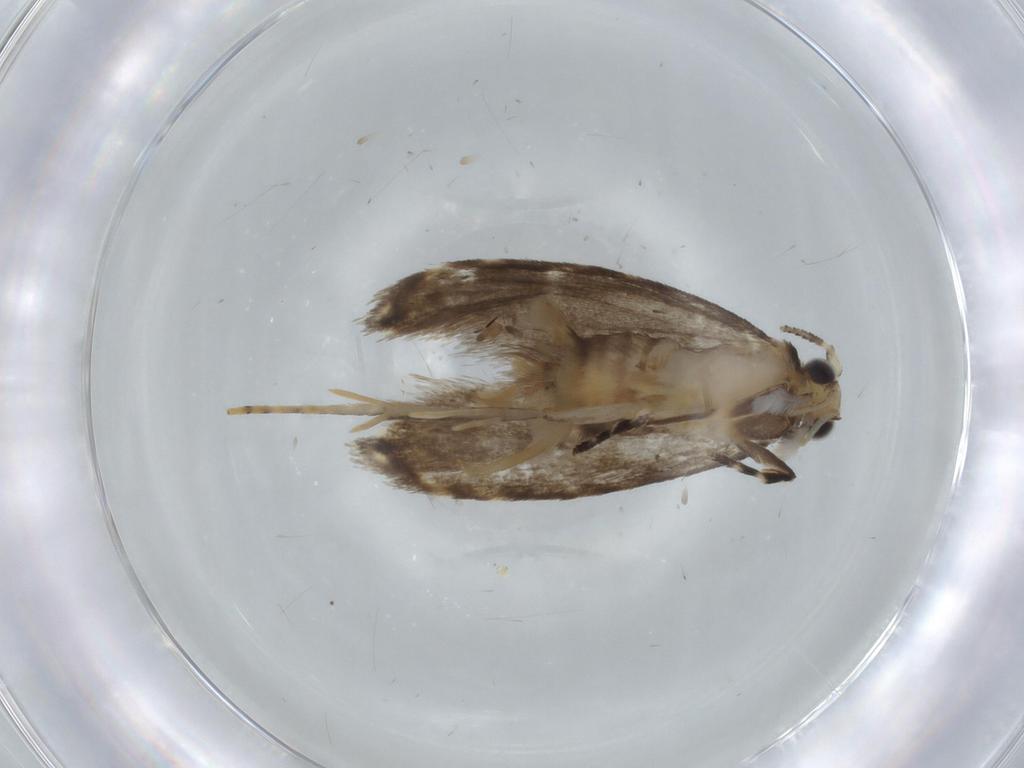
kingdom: Animalia
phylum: Arthropoda
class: Insecta
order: Lepidoptera
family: Tineidae
